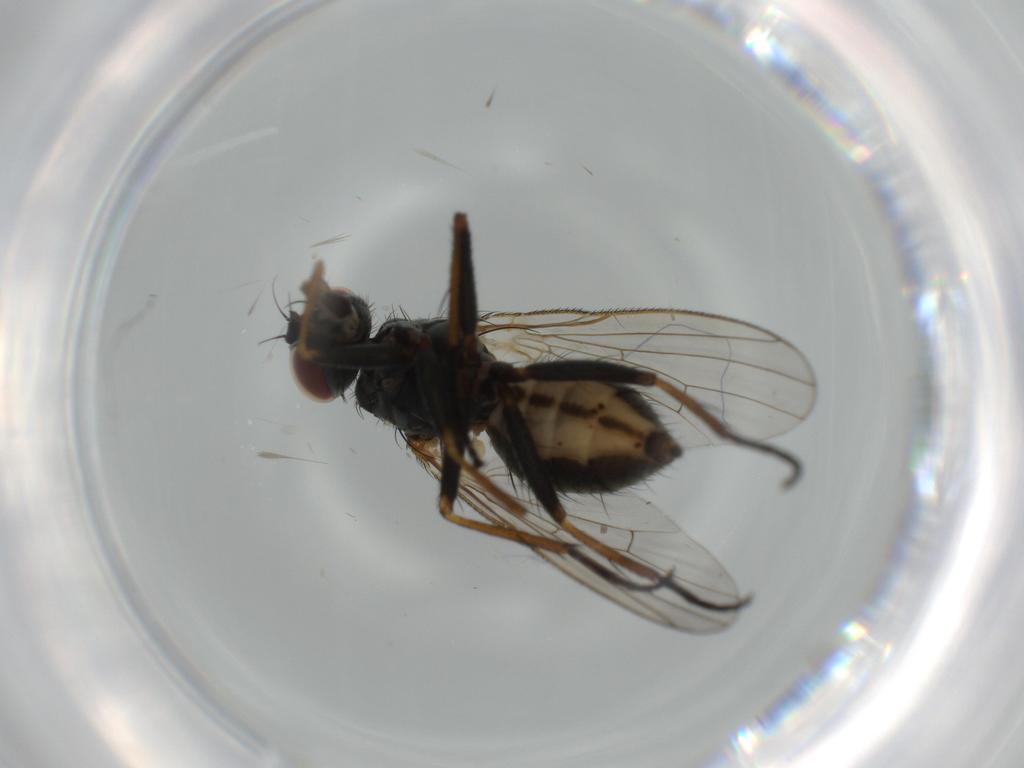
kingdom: Animalia
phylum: Arthropoda
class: Insecta
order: Diptera
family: Muscidae
